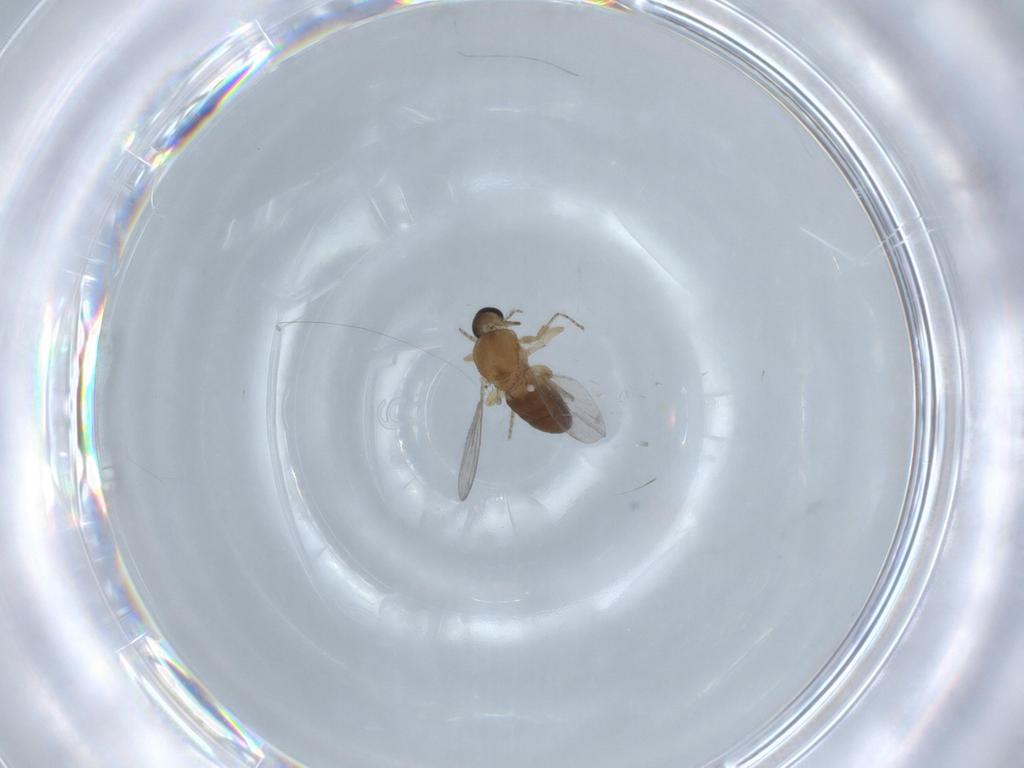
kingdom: Animalia
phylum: Arthropoda
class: Insecta
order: Diptera
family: Ceratopogonidae
